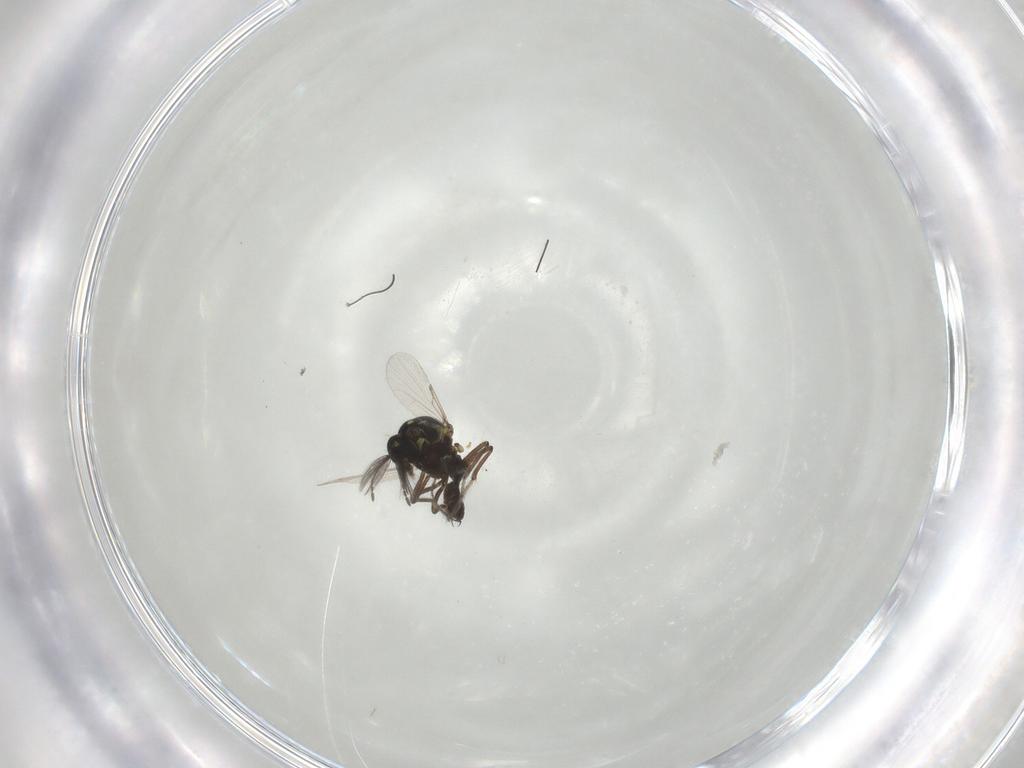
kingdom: Animalia
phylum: Arthropoda
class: Insecta
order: Diptera
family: Ceratopogonidae
